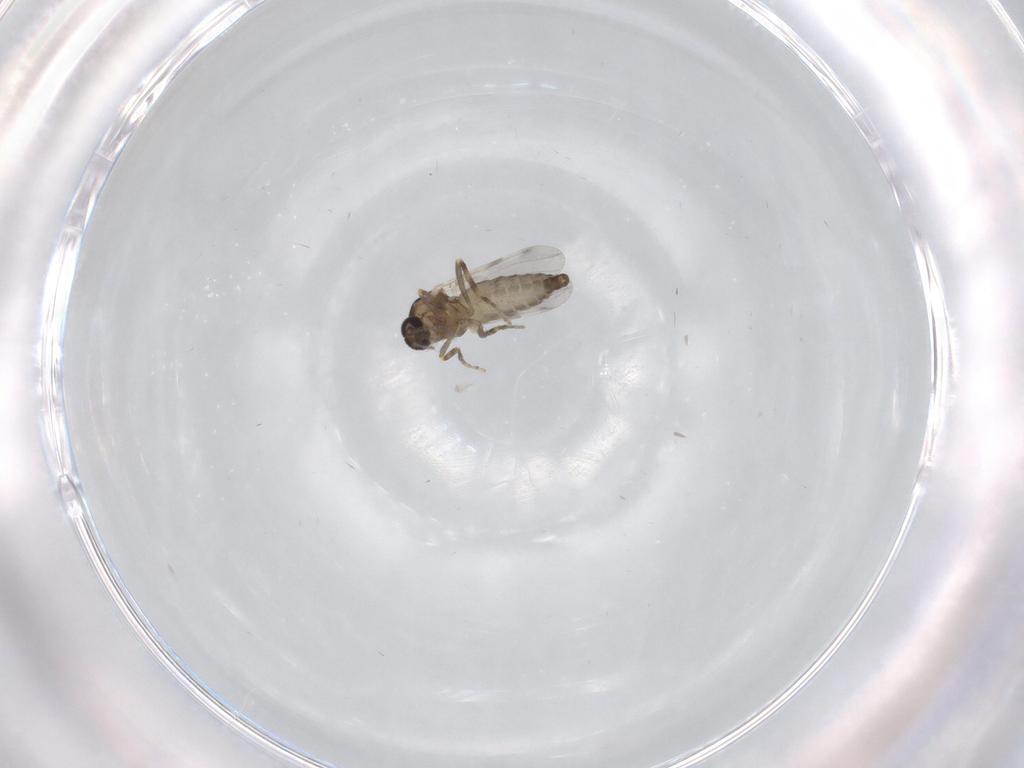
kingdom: Animalia
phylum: Arthropoda
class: Insecta
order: Diptera
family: Ceratopogonidae
